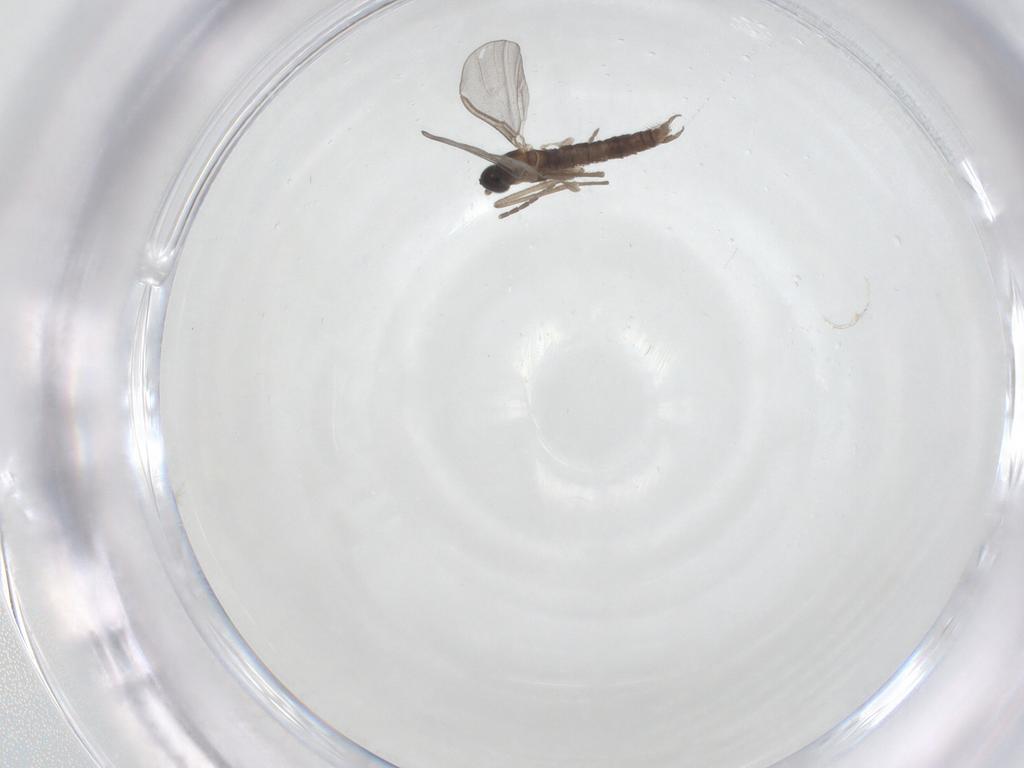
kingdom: Animalia
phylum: Arthropoda
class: Insecta
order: Diptera
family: Cecidomyiidae
